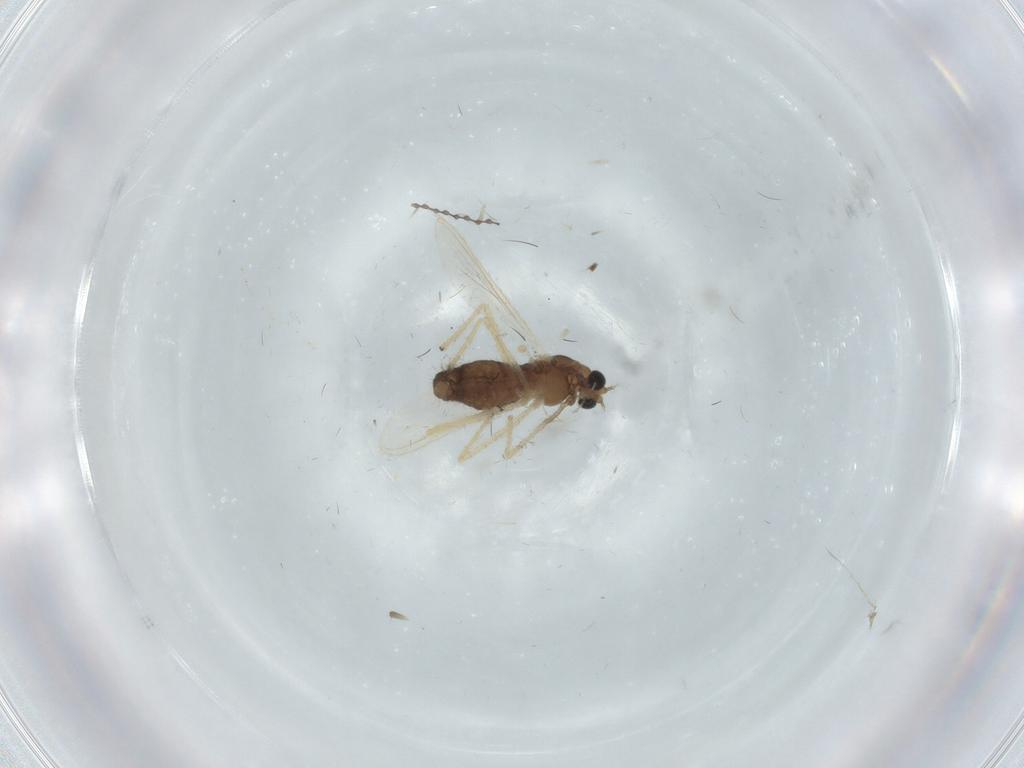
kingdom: Animalia
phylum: Arthropoda
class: Insecta
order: Diptera
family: Chironomidae
